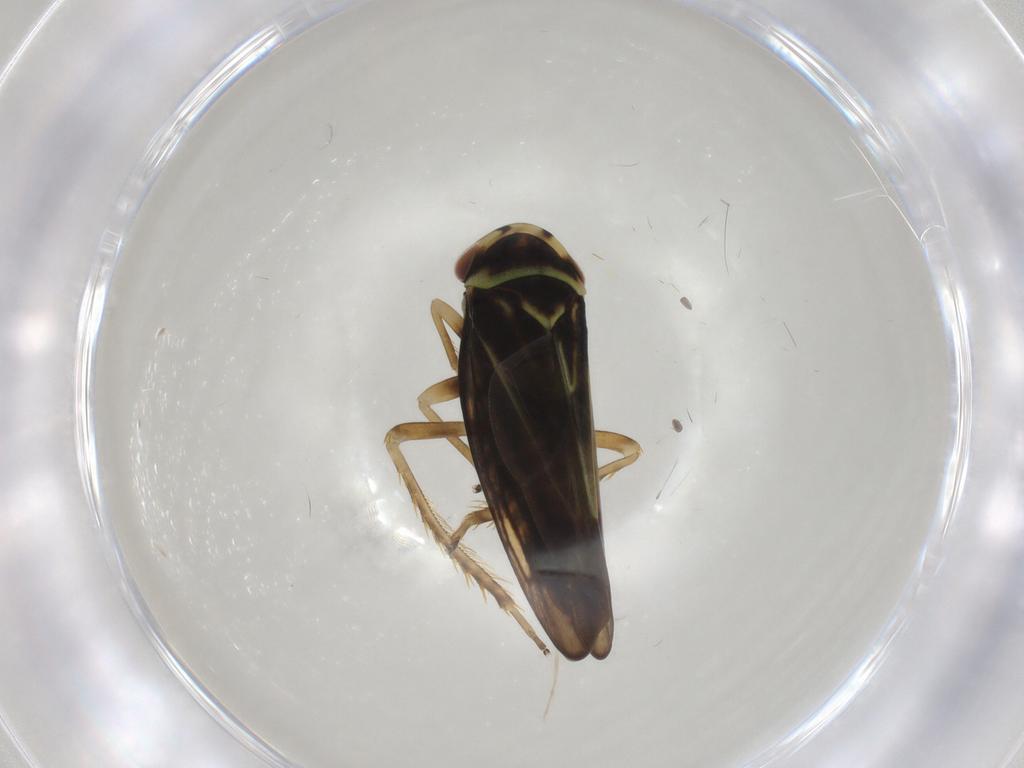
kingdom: Animalia
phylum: Arthropoda
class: Insecta
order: Hemiptera
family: Cicadellidae
